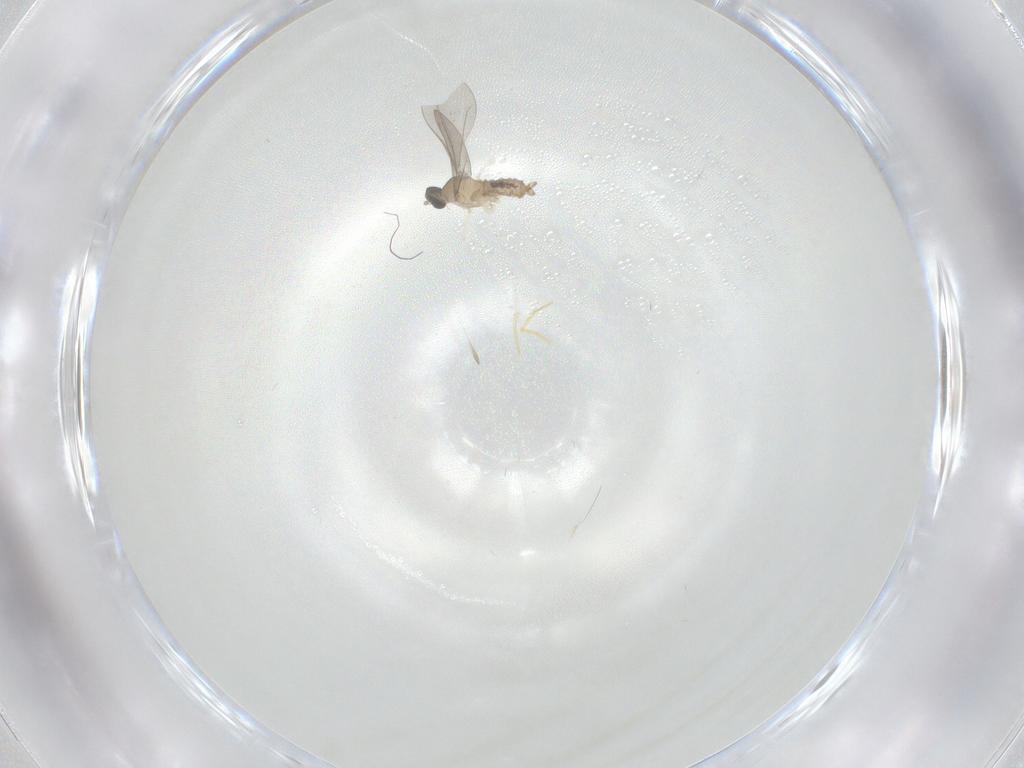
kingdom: Animalia
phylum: Arthropoda
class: Insecta
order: Diptera
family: Cecidomyiidae
